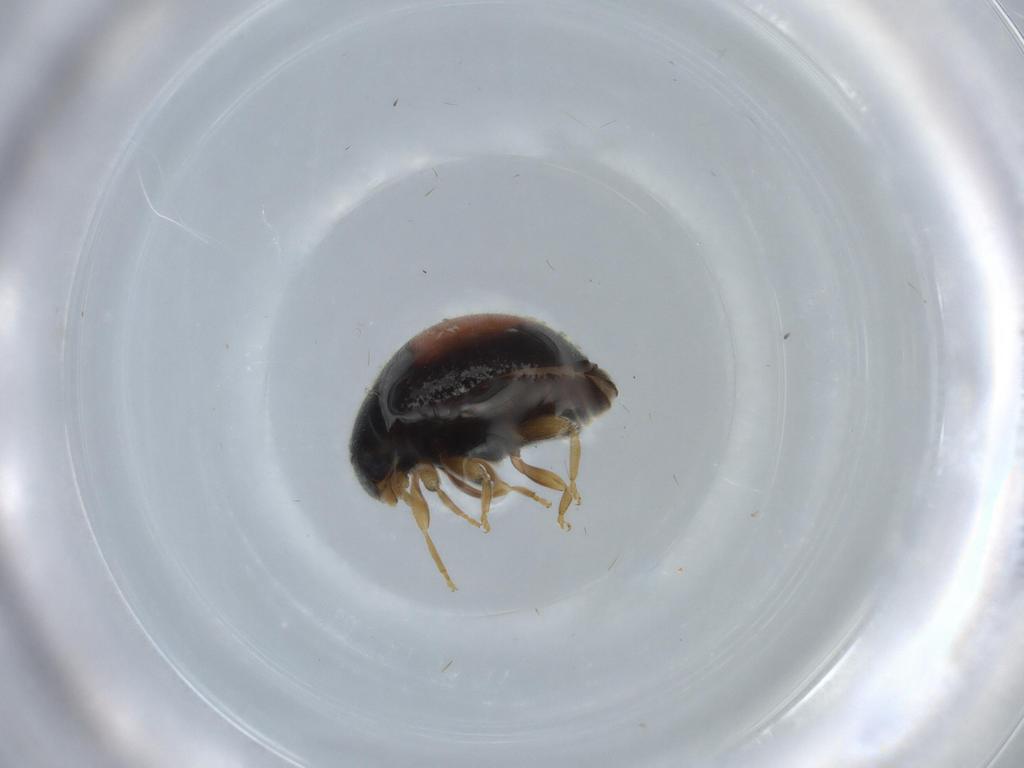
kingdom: Animalia
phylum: Arthropoda
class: Insecta
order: Coleoptera
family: Coccinellidae
